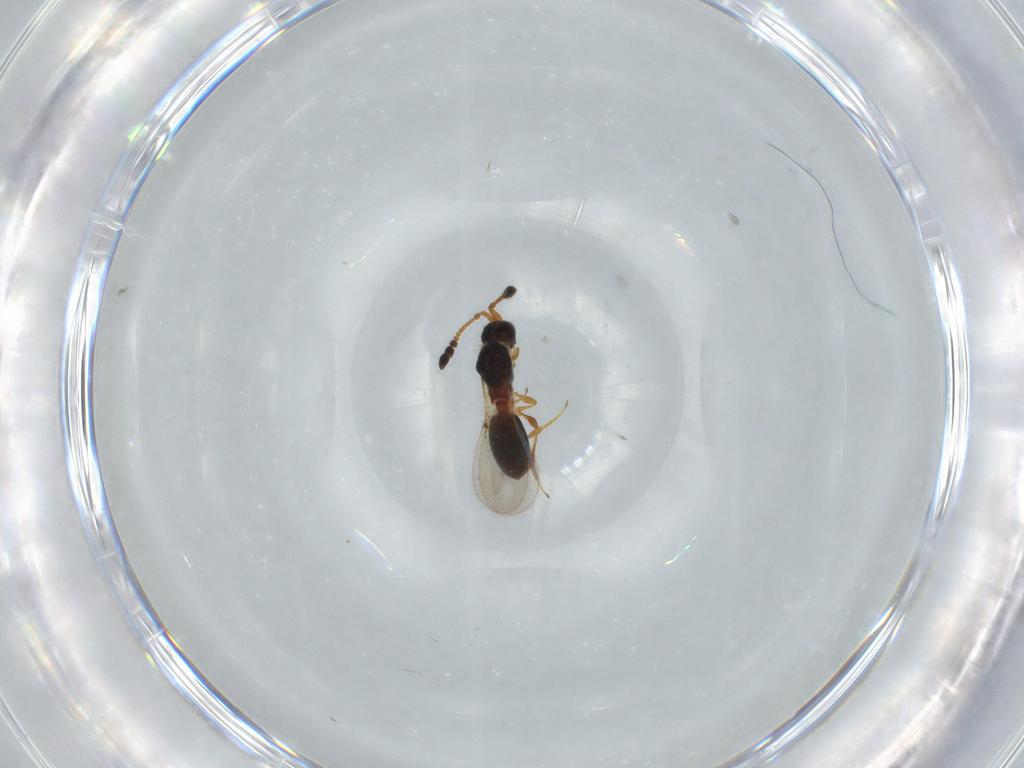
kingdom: Animalia
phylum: Arthropoda
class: Insecta
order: Hymenoptera
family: Diapriidae
